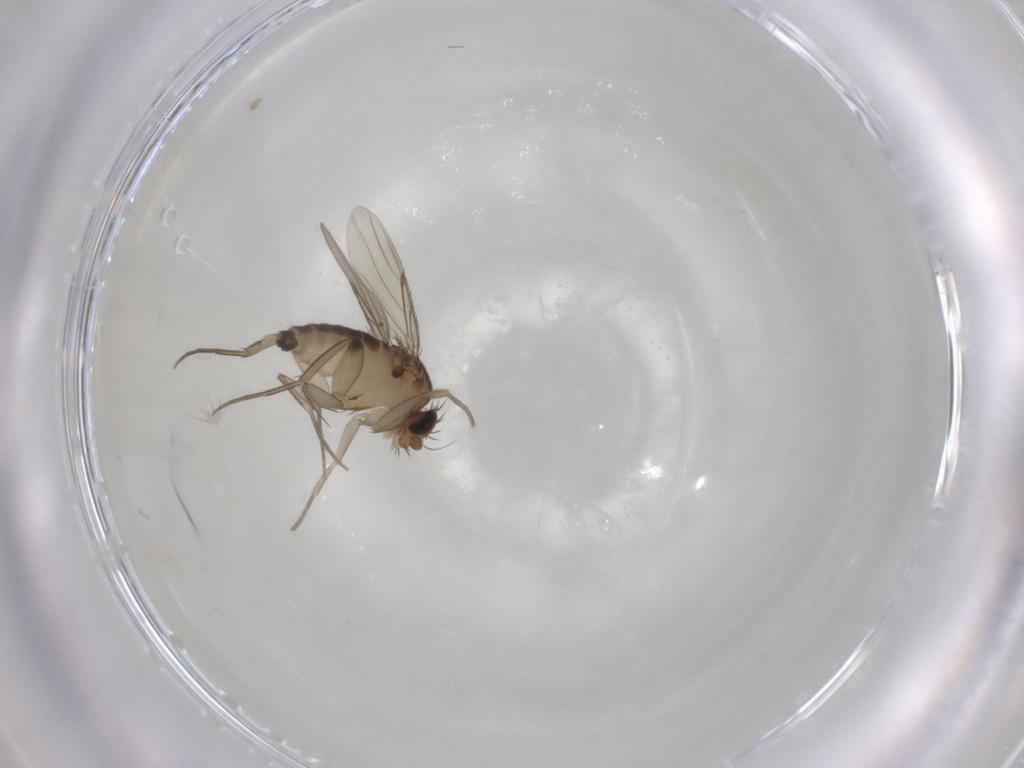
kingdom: Animalia
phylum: Arthropoda
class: Insecta
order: Diptera
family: Phoridae
